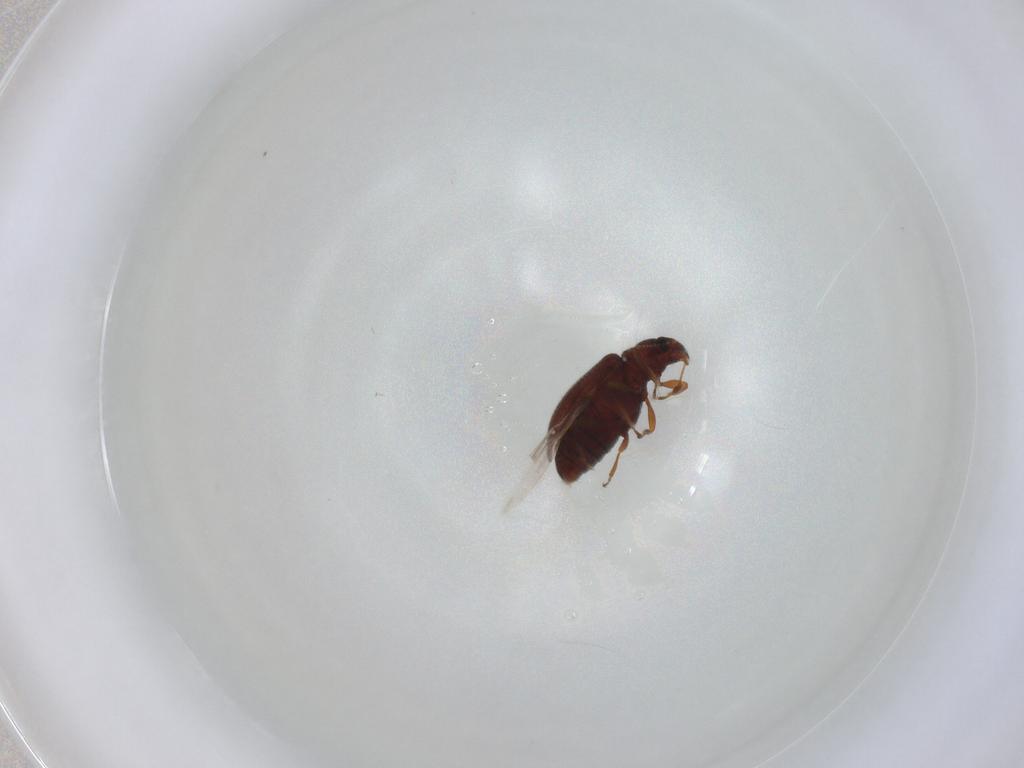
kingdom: Animalia
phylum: Arthropoda
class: Insecta
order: Coleoptera
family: Latridiidae
